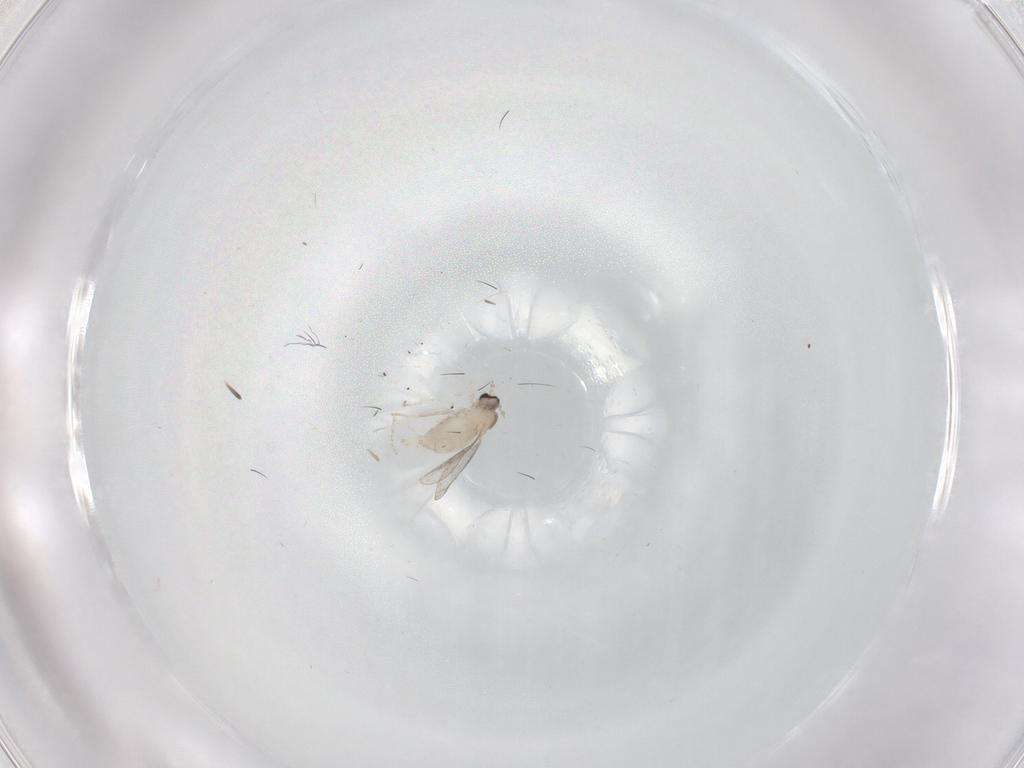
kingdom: Animalia
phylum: Arthropoda
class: Insecta
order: Diptera
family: Cecidomyiidae
